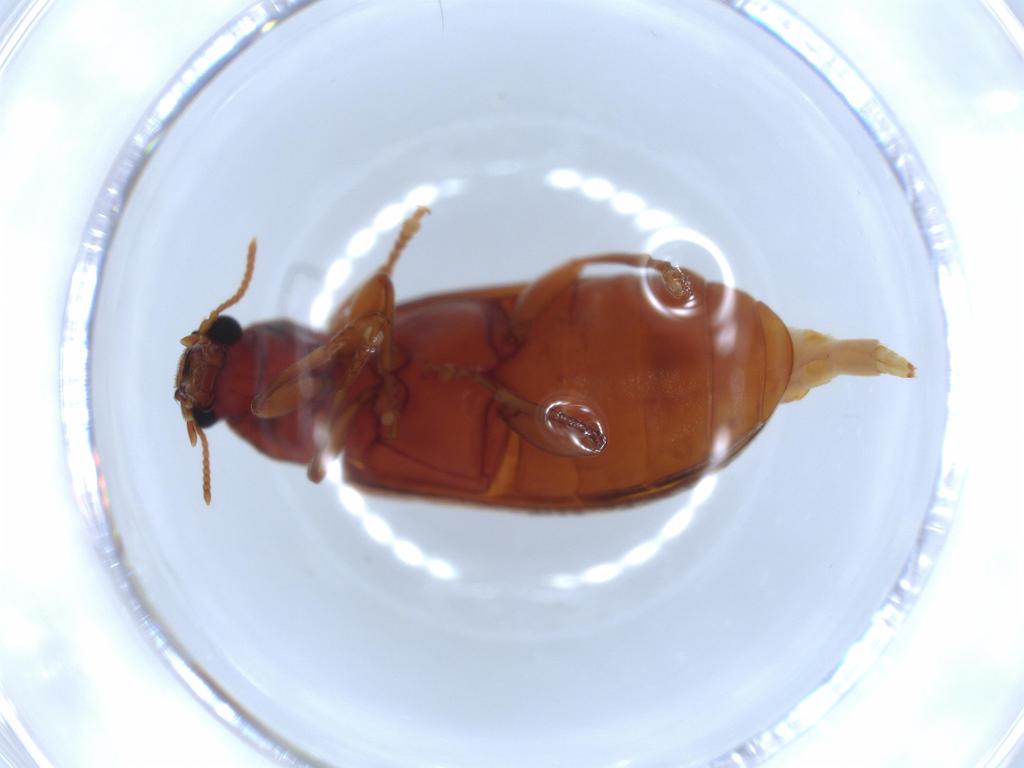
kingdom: Animalia
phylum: Arthropoda
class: Insecta
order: Coleoptera
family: Mycteridae
